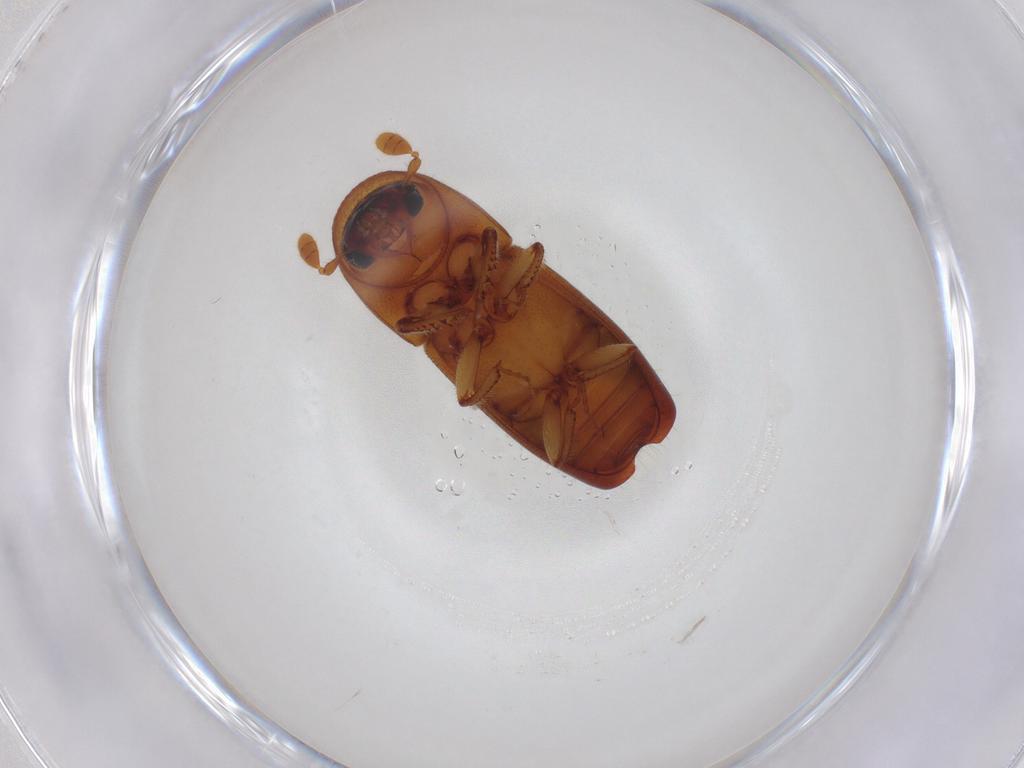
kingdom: Animalia
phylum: Arthropoda
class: Insecta
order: Coleoptera
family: Curculionidae
